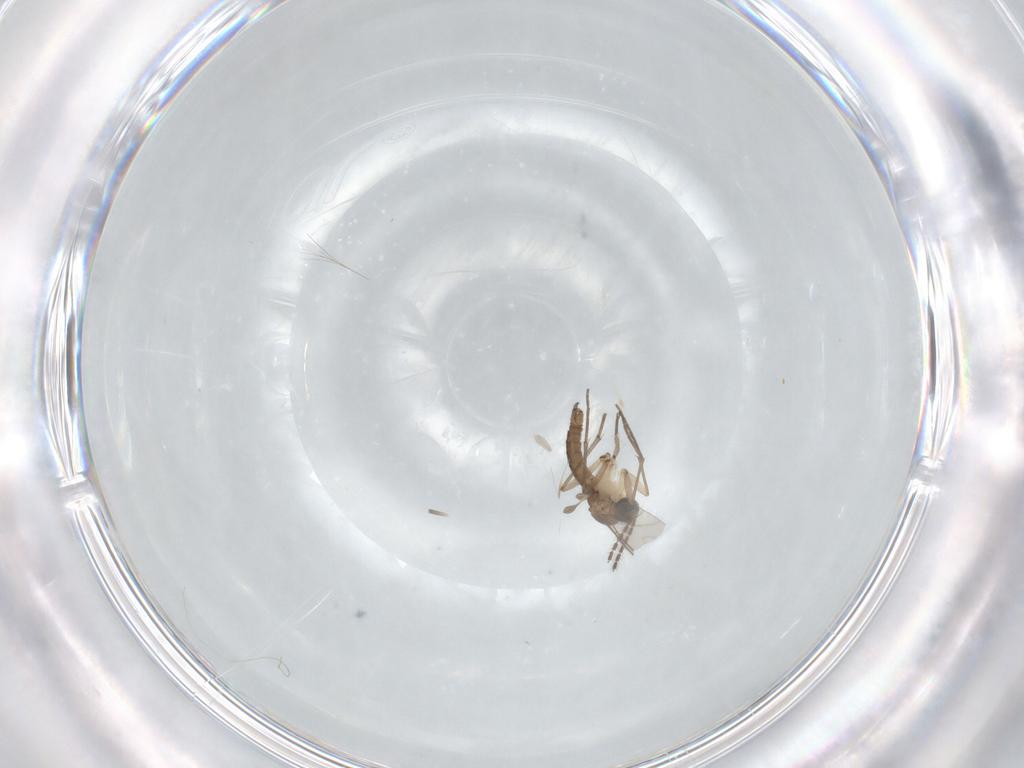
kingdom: Animalia
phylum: Arthropoda
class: Insecta
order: Diptera
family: Sciaridae
